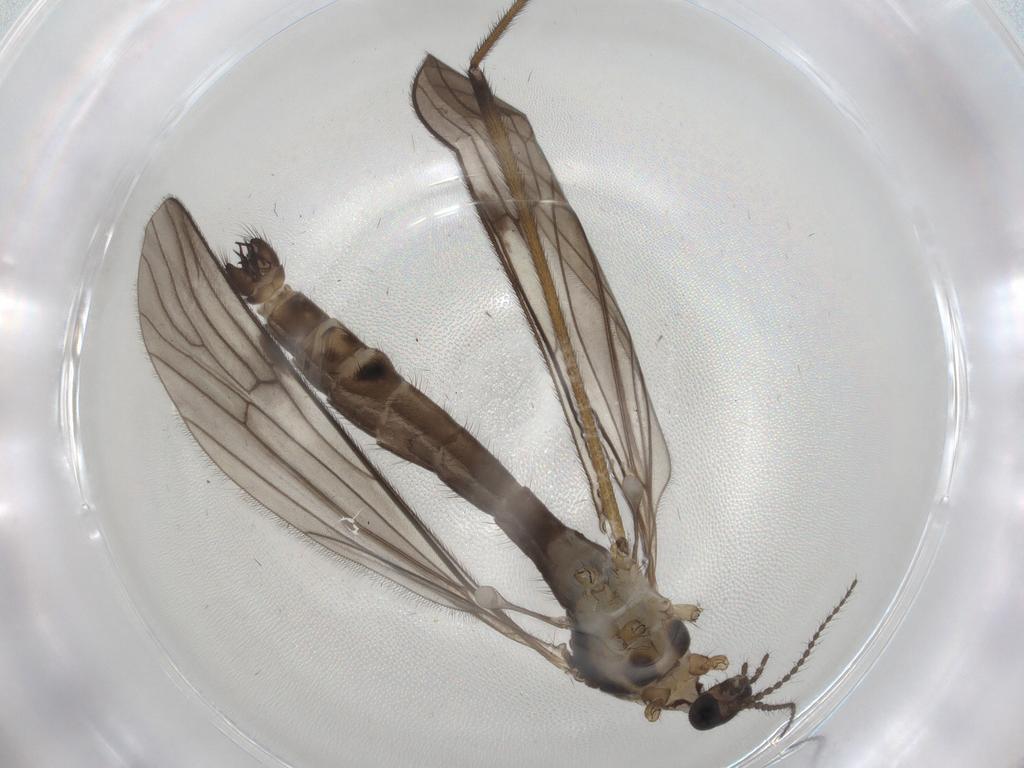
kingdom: Animalia
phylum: Arthropoda
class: Insecta
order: Diptera
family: Limoniidae
